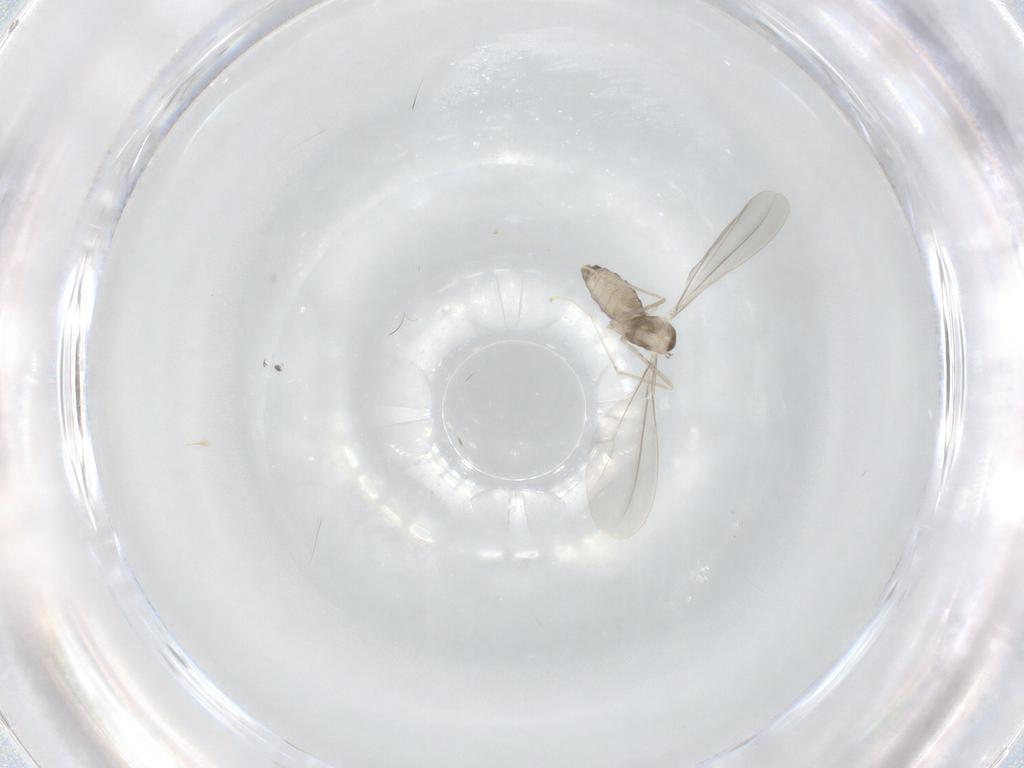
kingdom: Animalia
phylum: Arthropoda
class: Insecta
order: Diptera
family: Cecidomyiidae
